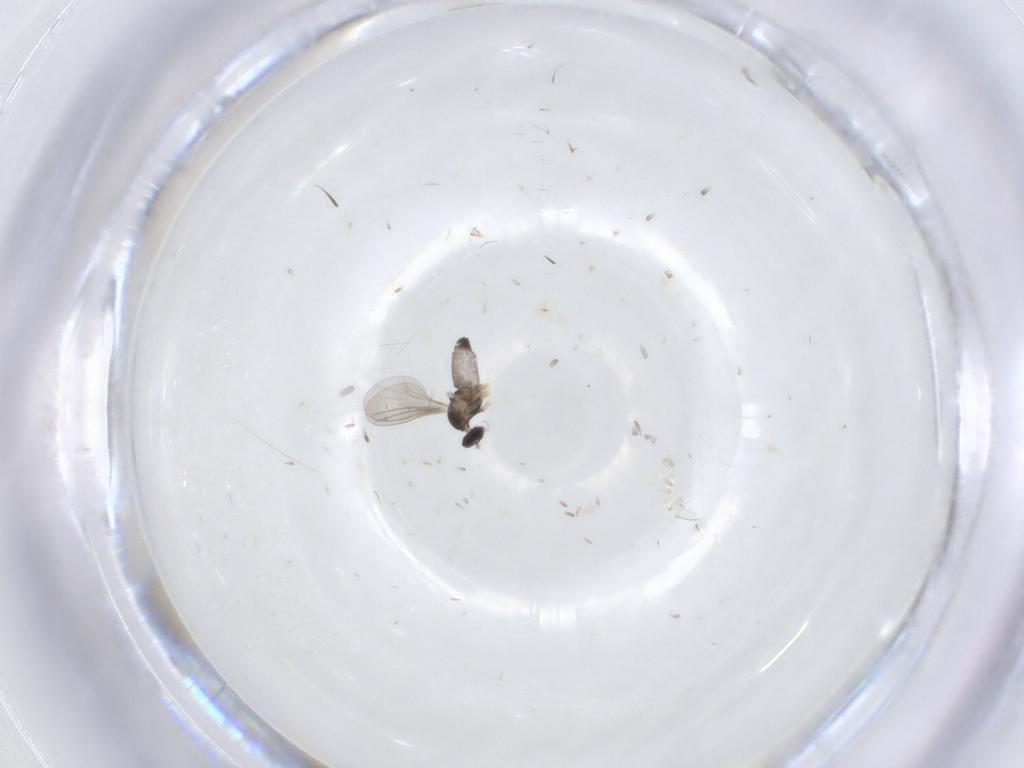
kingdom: Animalia
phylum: Arthropoda
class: Insecta
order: Diptera
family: Cecidomyiidae
